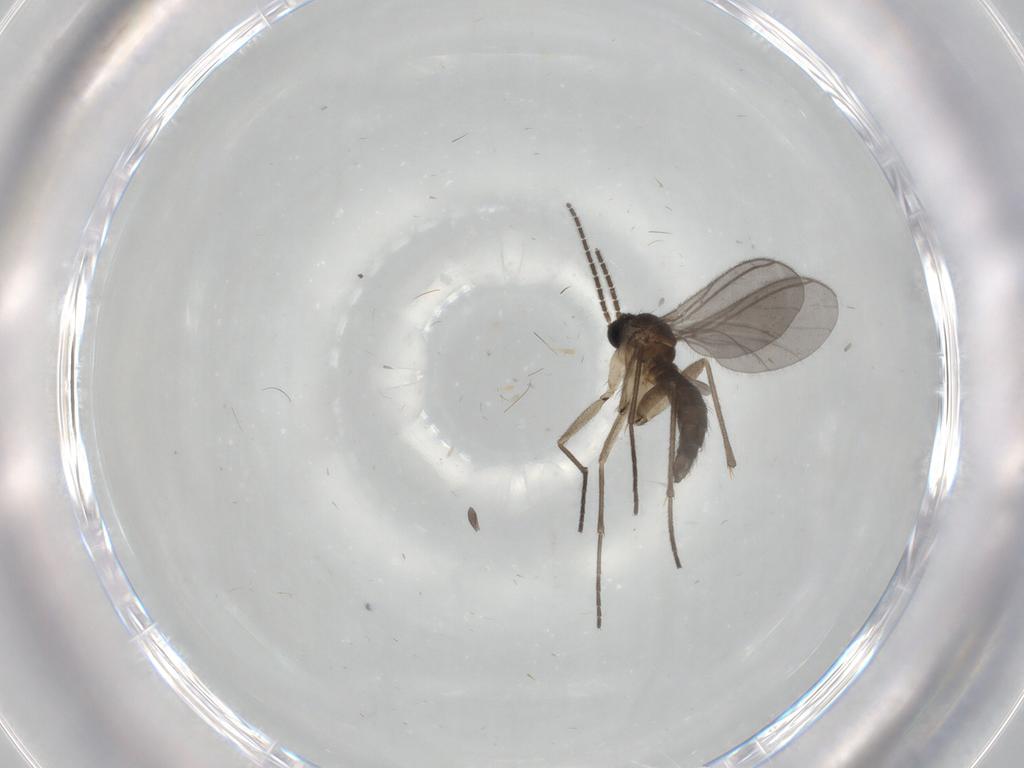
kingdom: Animalia
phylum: Arthropoda
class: Insecta
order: Diptera
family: Sciaridae
